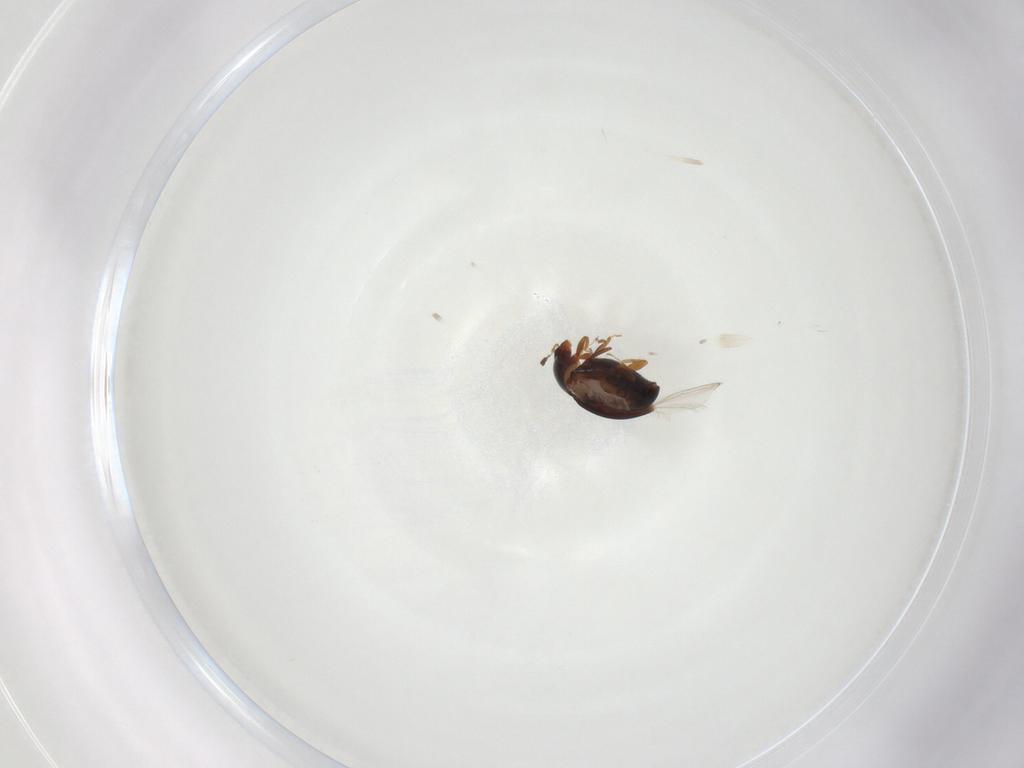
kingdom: Animalia
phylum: Arthropoda
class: Insecta
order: Coleoptera
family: Corylophidae
